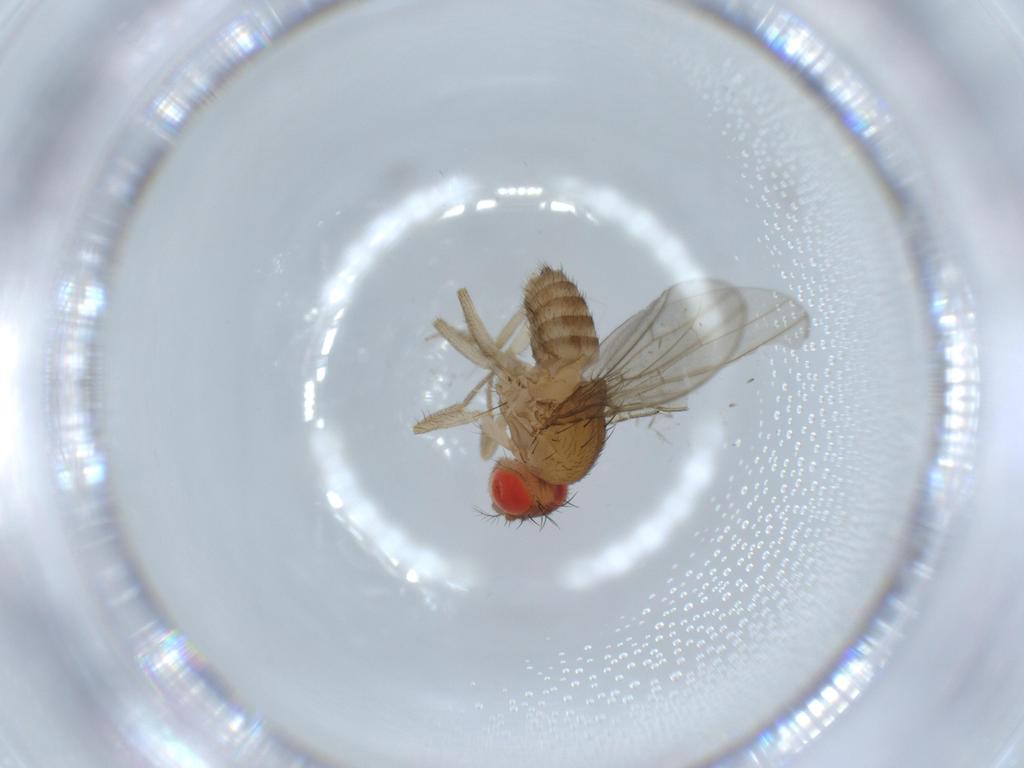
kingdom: Animalia
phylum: Arthropoda
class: Insecta
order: Diptera
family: Drosophilidae
